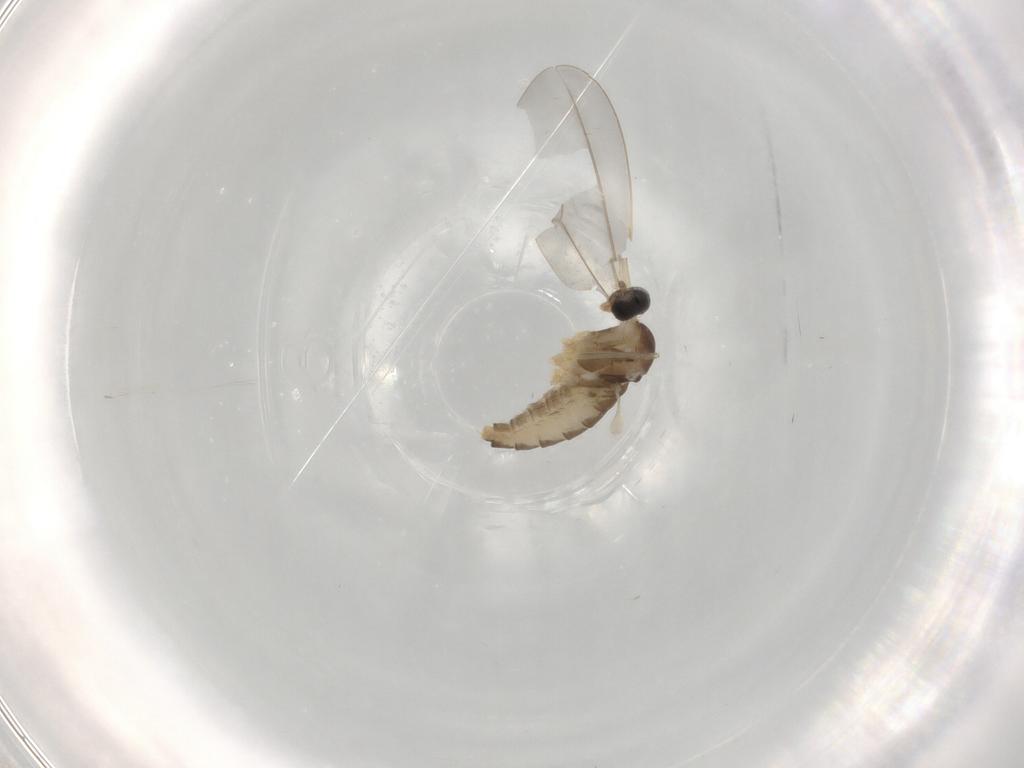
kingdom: Animalia
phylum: Arthropoda
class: Insecta
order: Diptera
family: Cecidomyiidae
